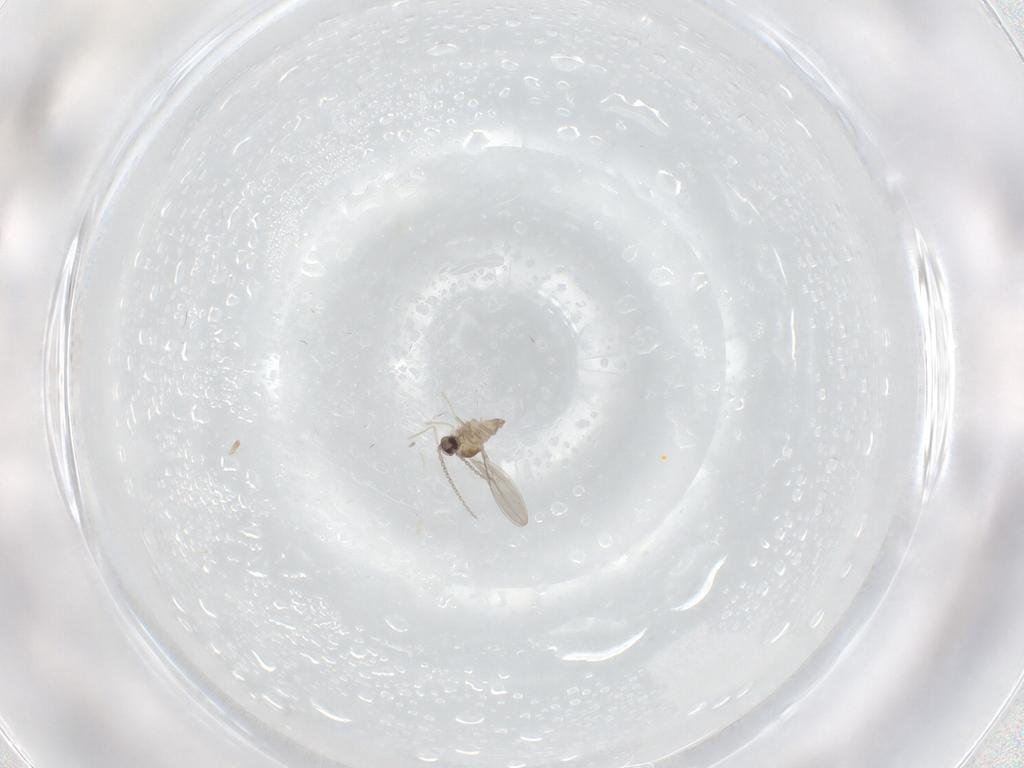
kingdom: Animalia
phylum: Arthropoda
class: Insecta
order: Diptera
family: Cecidomyiidae
